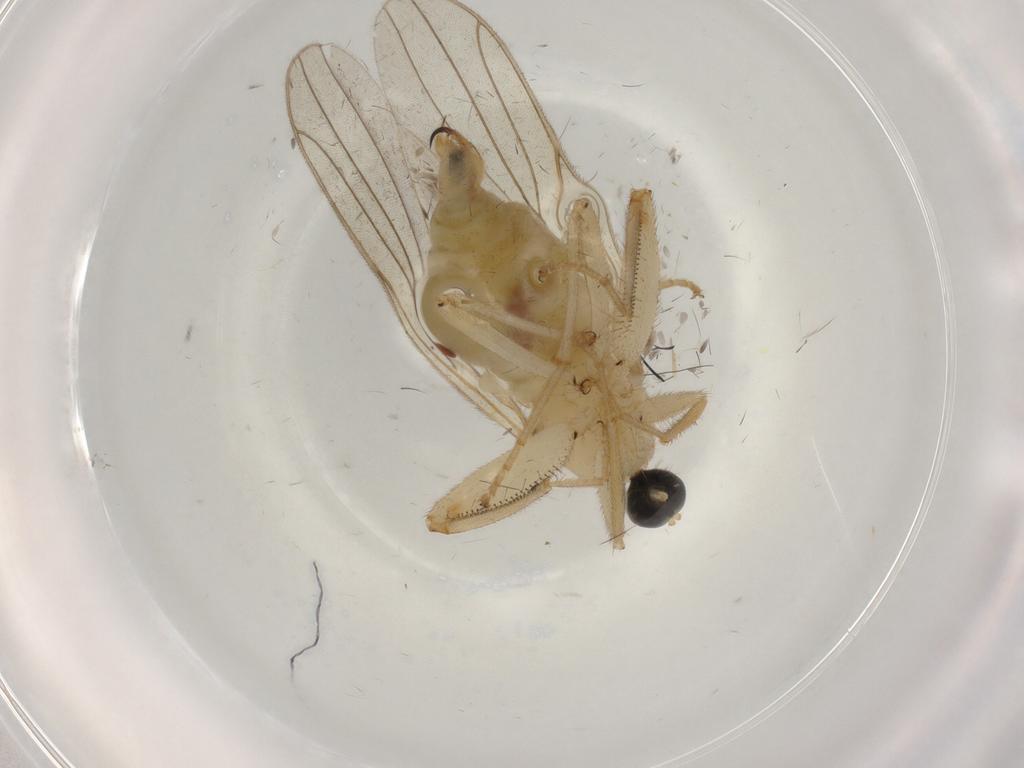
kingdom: Animalia
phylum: Arthropoda
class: Insecta
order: Diptera
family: Hybotidae
